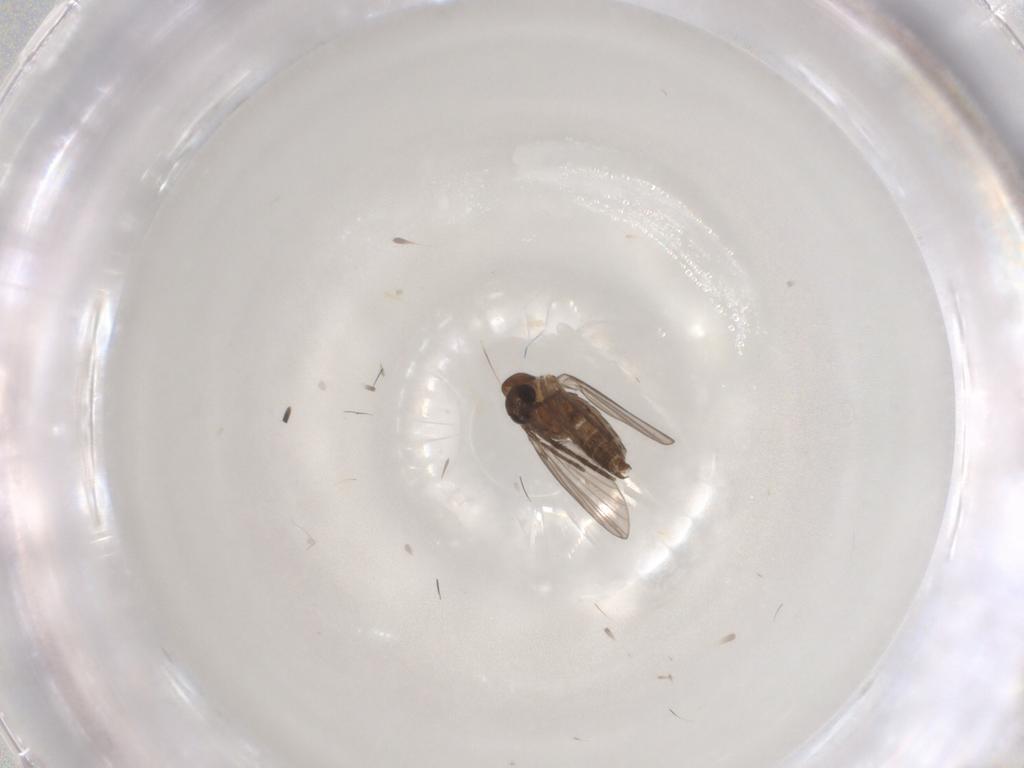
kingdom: Animalia
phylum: Arthropoda
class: Insecta
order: Diptera
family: Psychodidae
